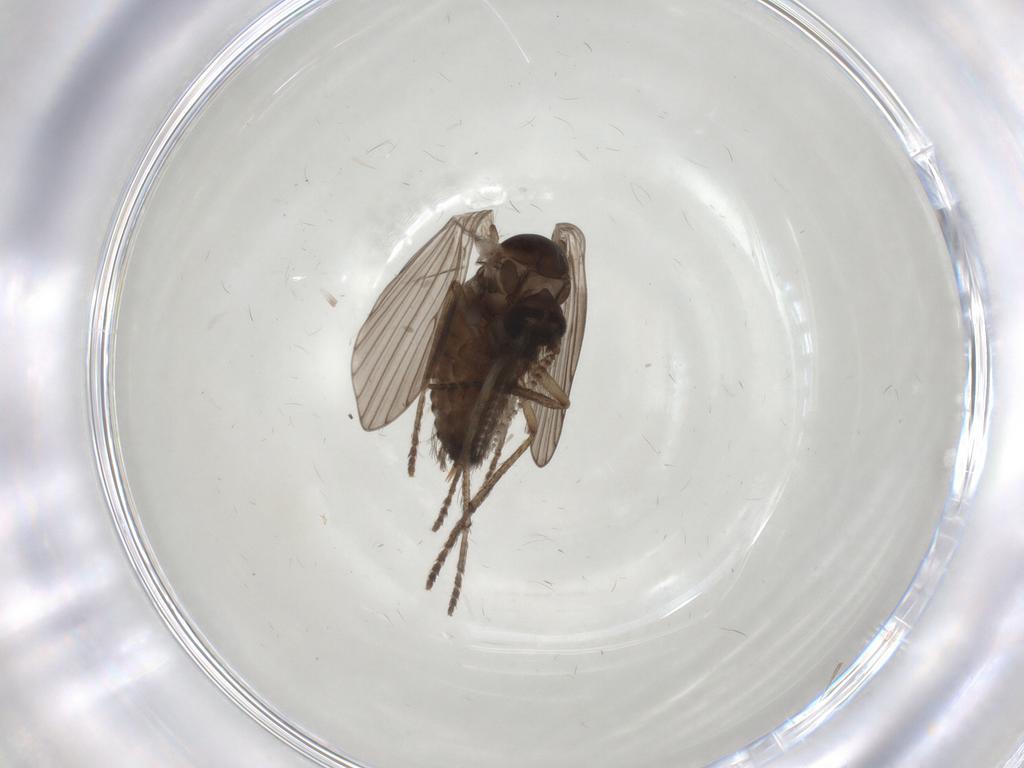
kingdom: Animalia
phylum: Arthropoda
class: Insecta
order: Diptera
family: Psychodidae
